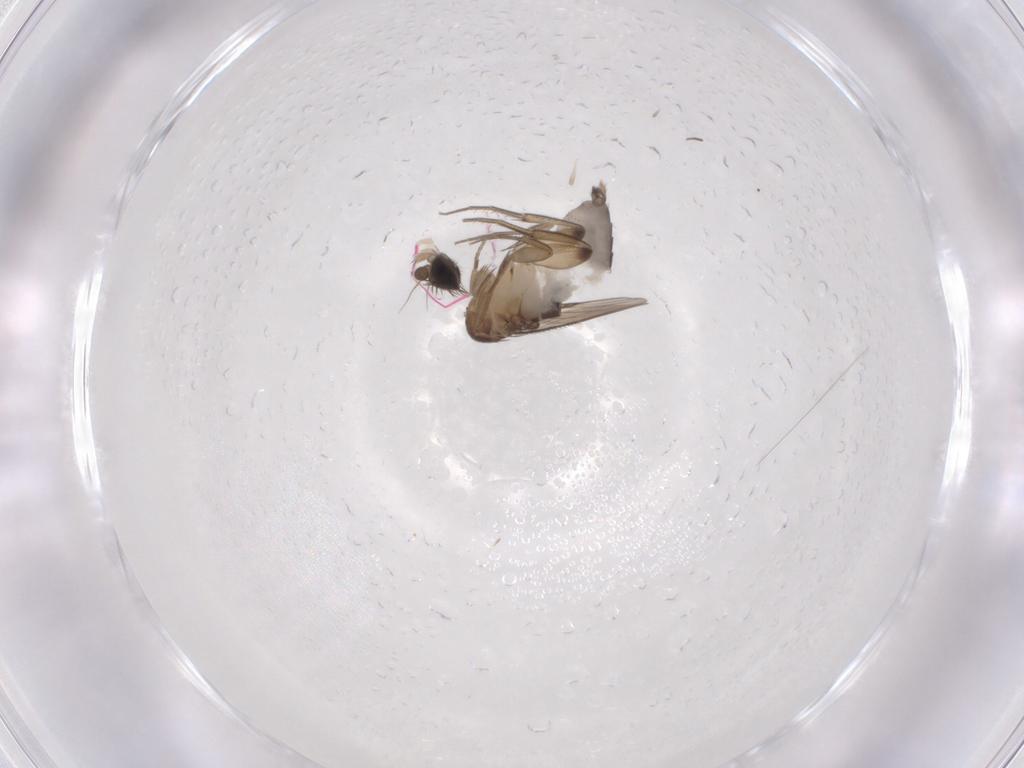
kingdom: Animalia
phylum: Arthropoda
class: Insecta
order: Diptera
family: Phoridae
